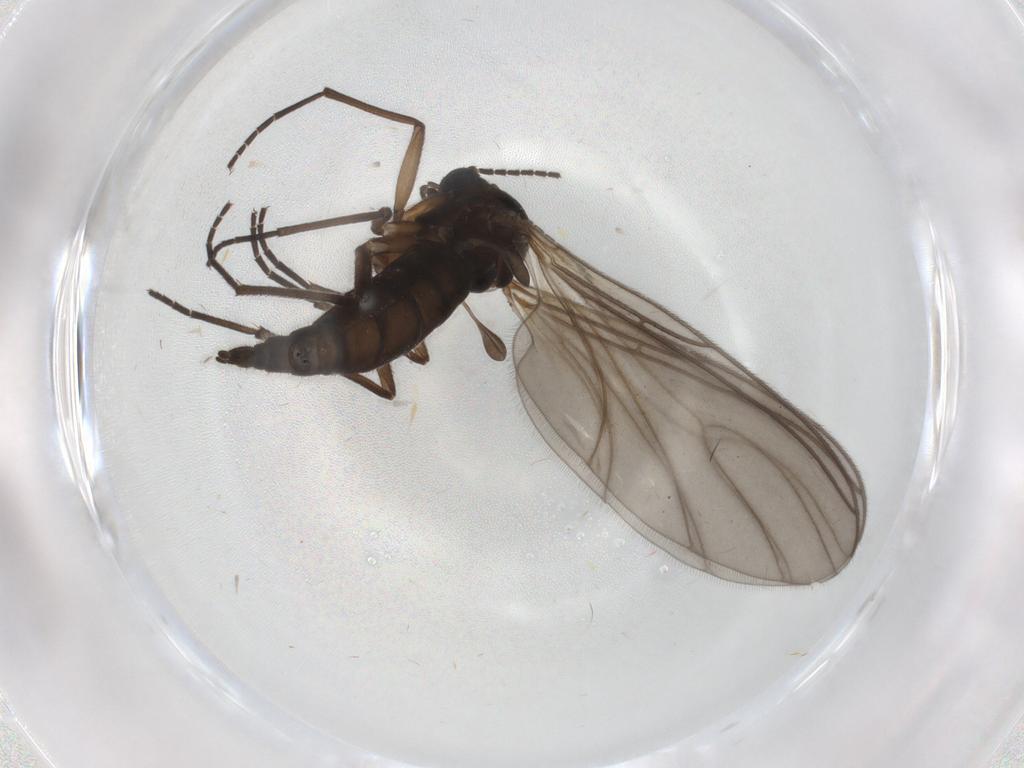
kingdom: Animalia
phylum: Arthropoda
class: Insecta
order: Diptera
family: Sciaridae
